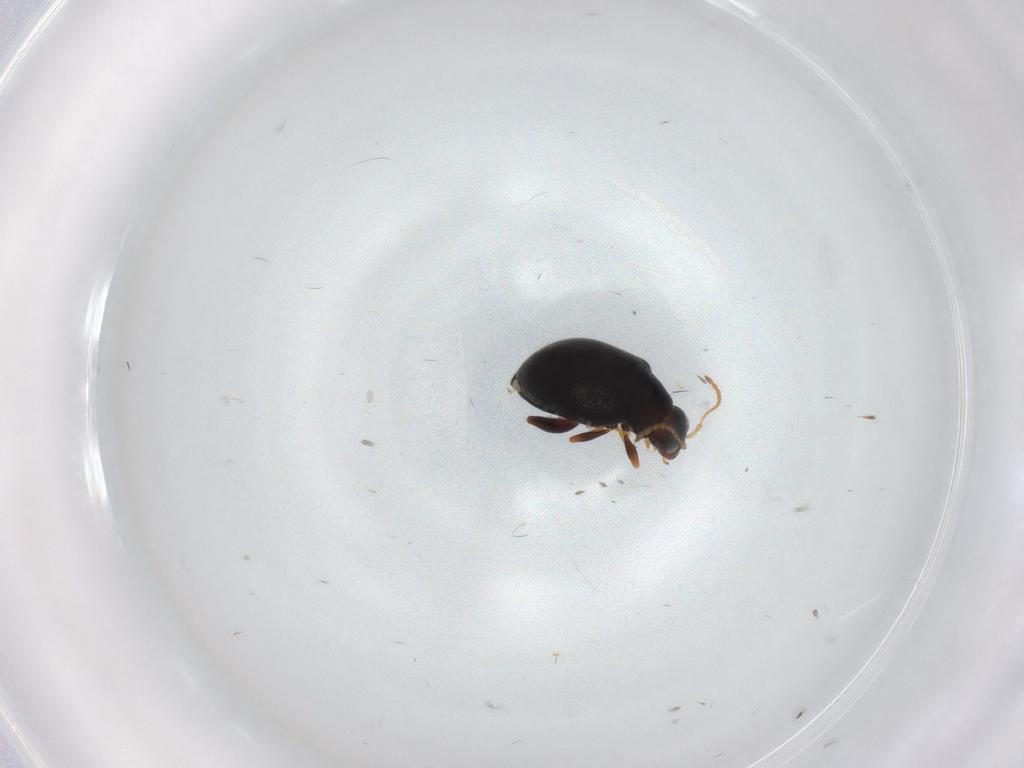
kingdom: Animalia
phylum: Arthropoda
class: Insecta
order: Coleoptera
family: Chrysomelidae
